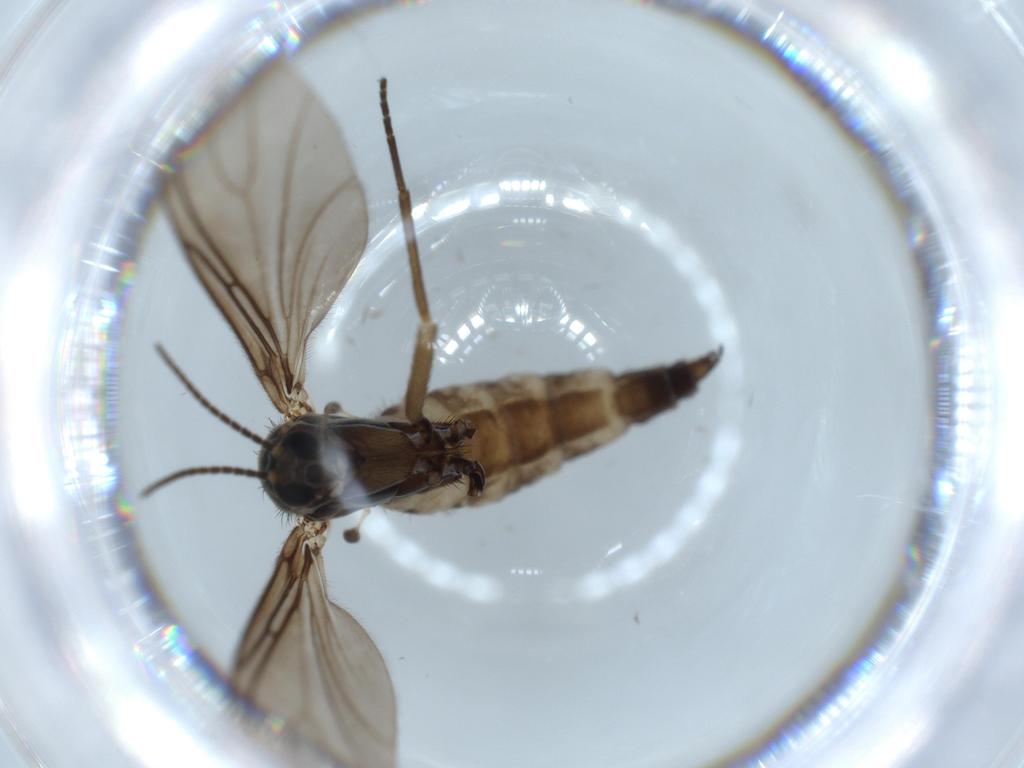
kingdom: Animalia
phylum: Arthropoda
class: Insecta
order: Diptera
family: Sciaridae
